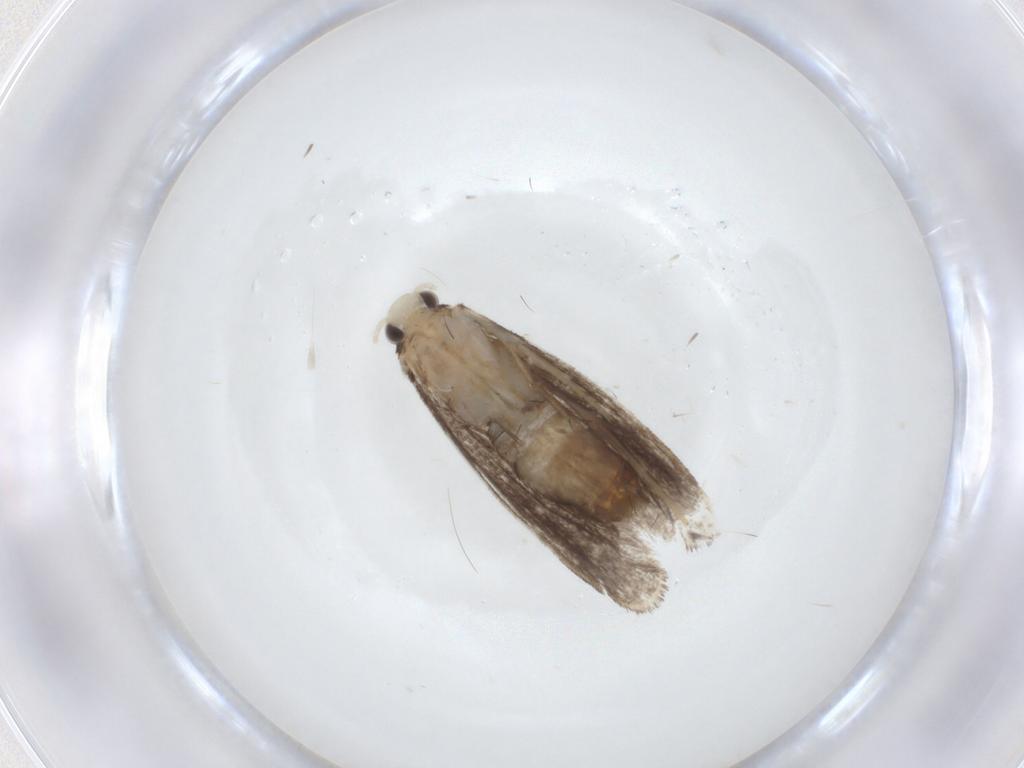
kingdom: Animalia
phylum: Arthropoda
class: Insecta
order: Lepidoptera
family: Dryadaulidae
